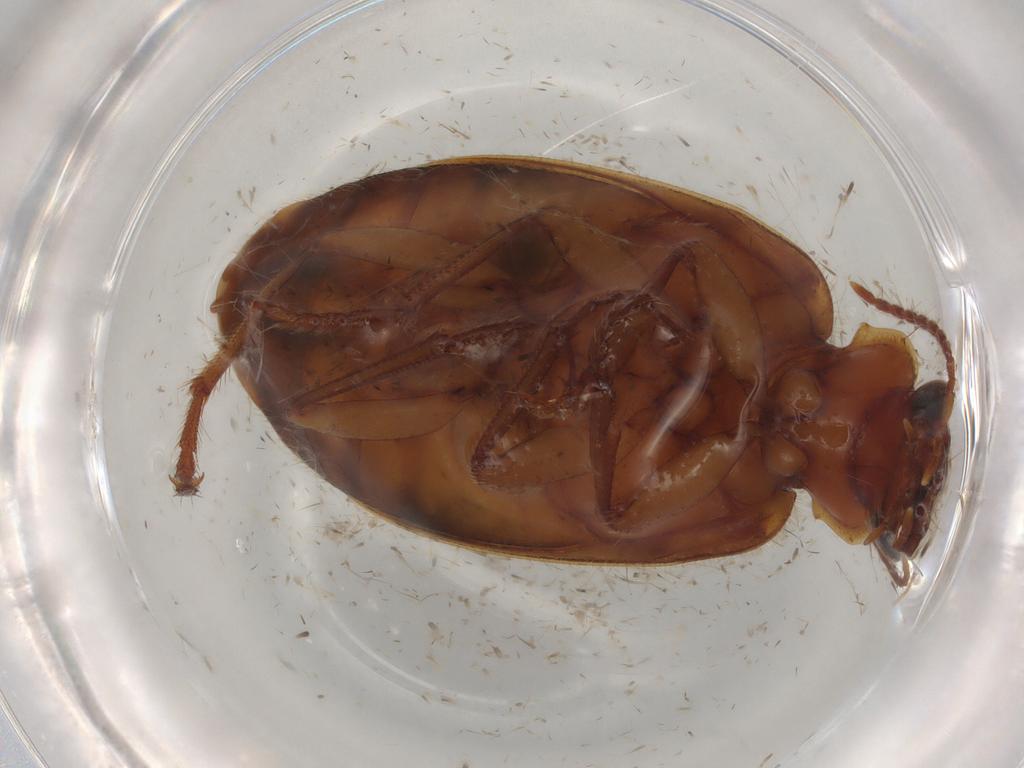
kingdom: Animalia
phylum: Arthropoda
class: Insecta
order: Coleoptera
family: Carabidae
